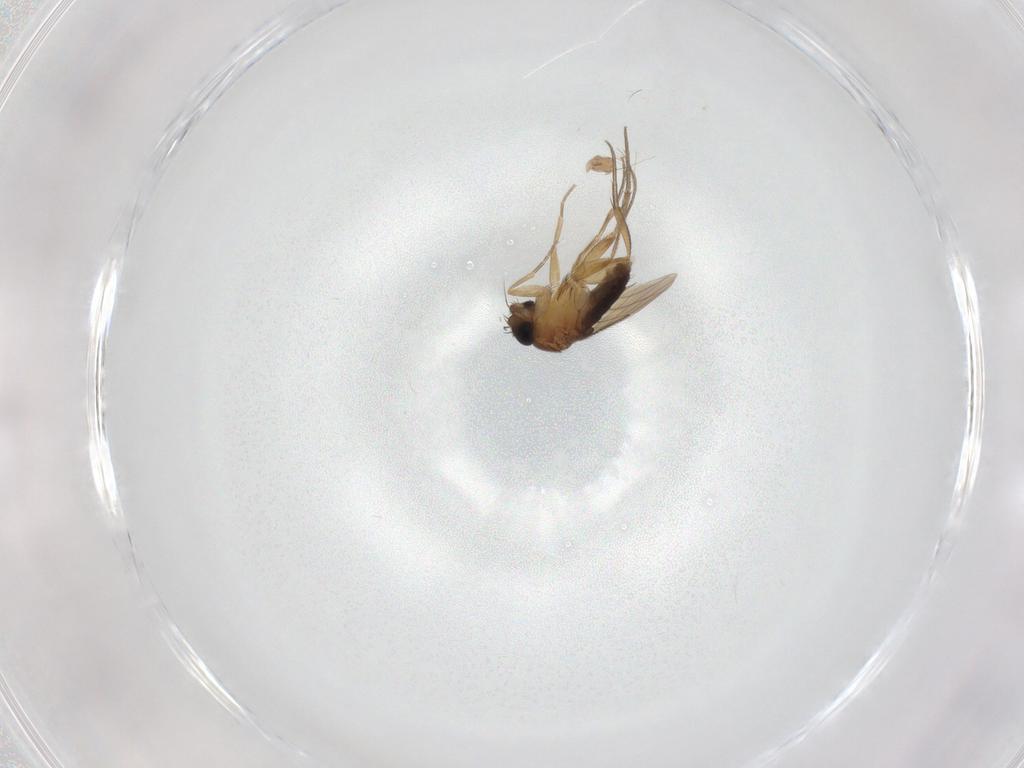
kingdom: Animalia
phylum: Arthropoda
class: Insecta
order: Diptera
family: Phoridae
